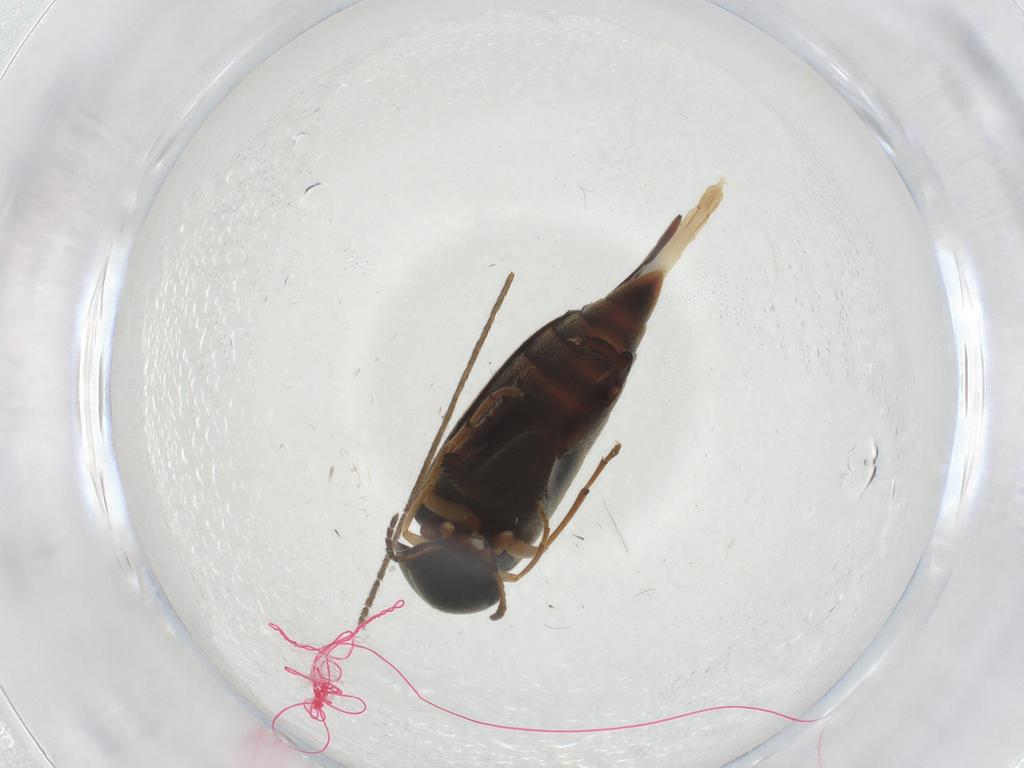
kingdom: Animalia
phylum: Arthropoda
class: Insecta
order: Coleoptera
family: Mordellidae
